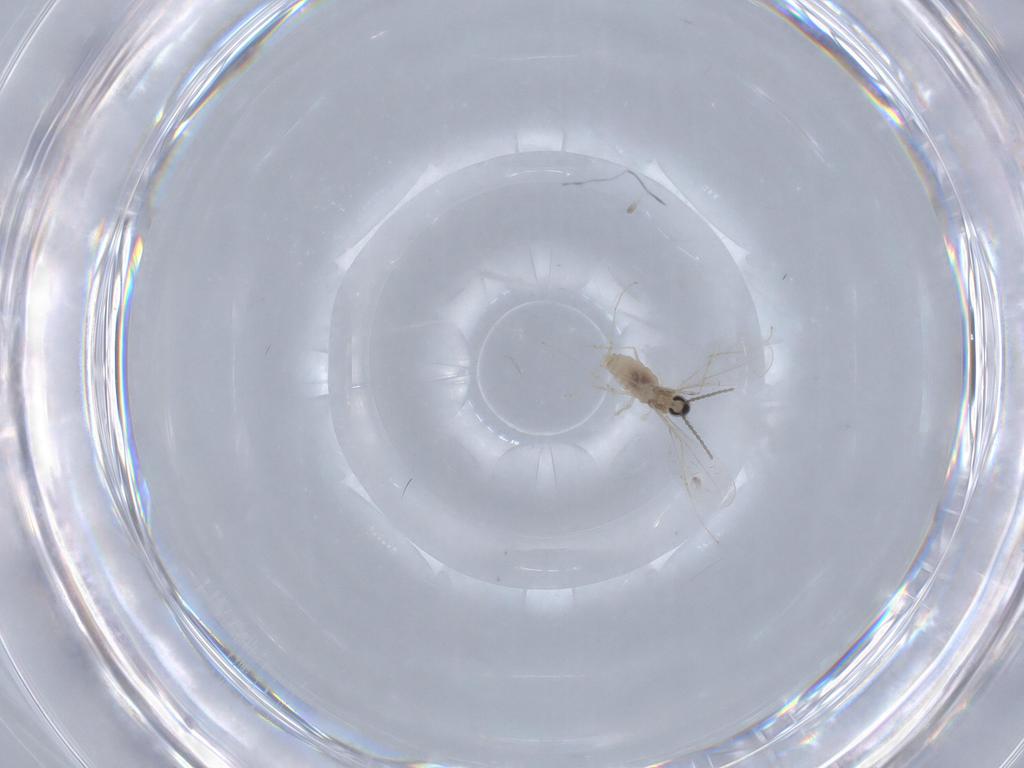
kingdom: Animalia
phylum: Arthropoda
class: Insecta
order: Diptera
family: Cecidomyiidae
